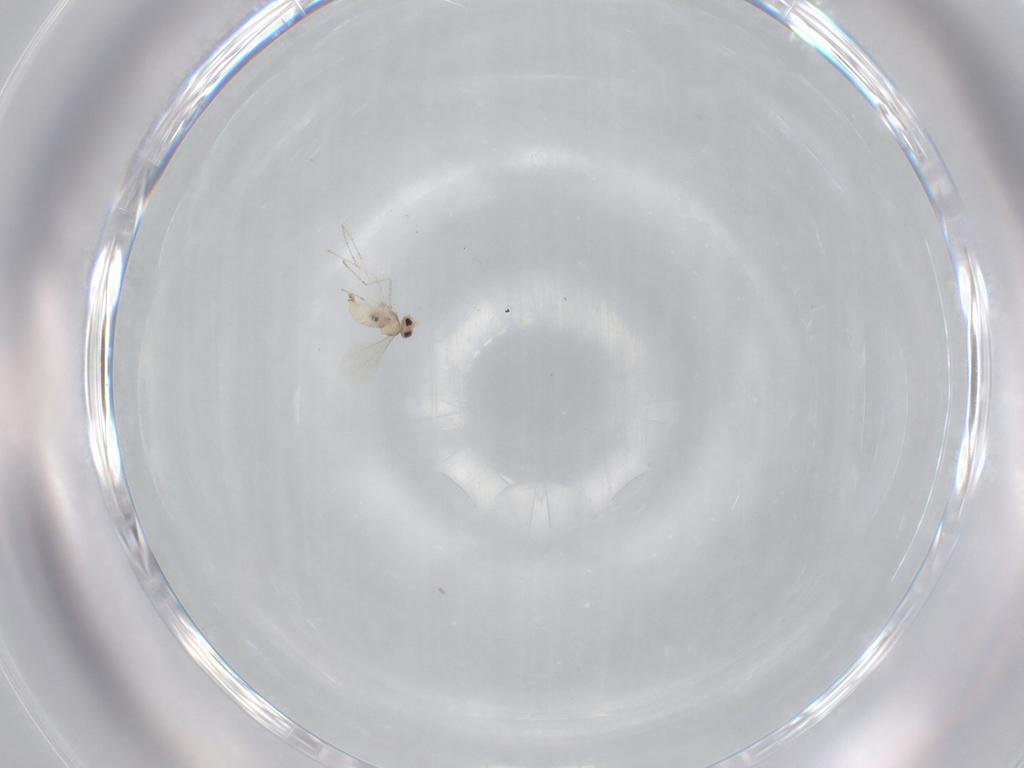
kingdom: Animalia
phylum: Arthropoda
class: Insecta
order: Diptera
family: Cecidomyiidae
